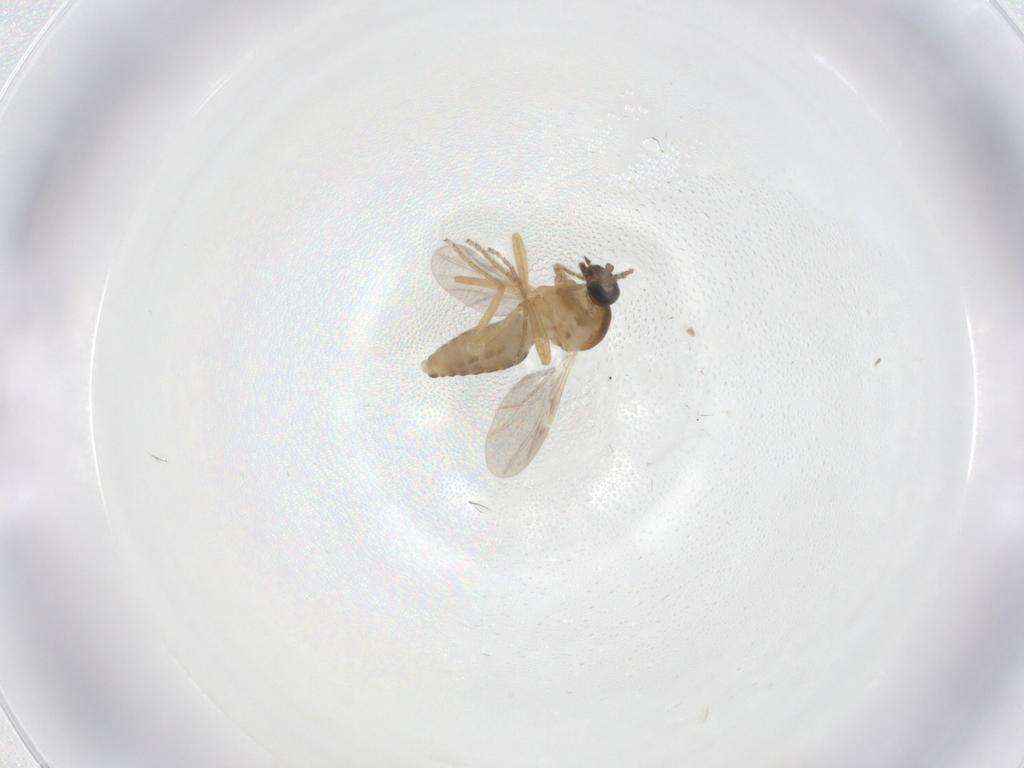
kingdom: Animalia
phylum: Arthropoda
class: Insecta
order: Diptera
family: Ceratopogonidae
